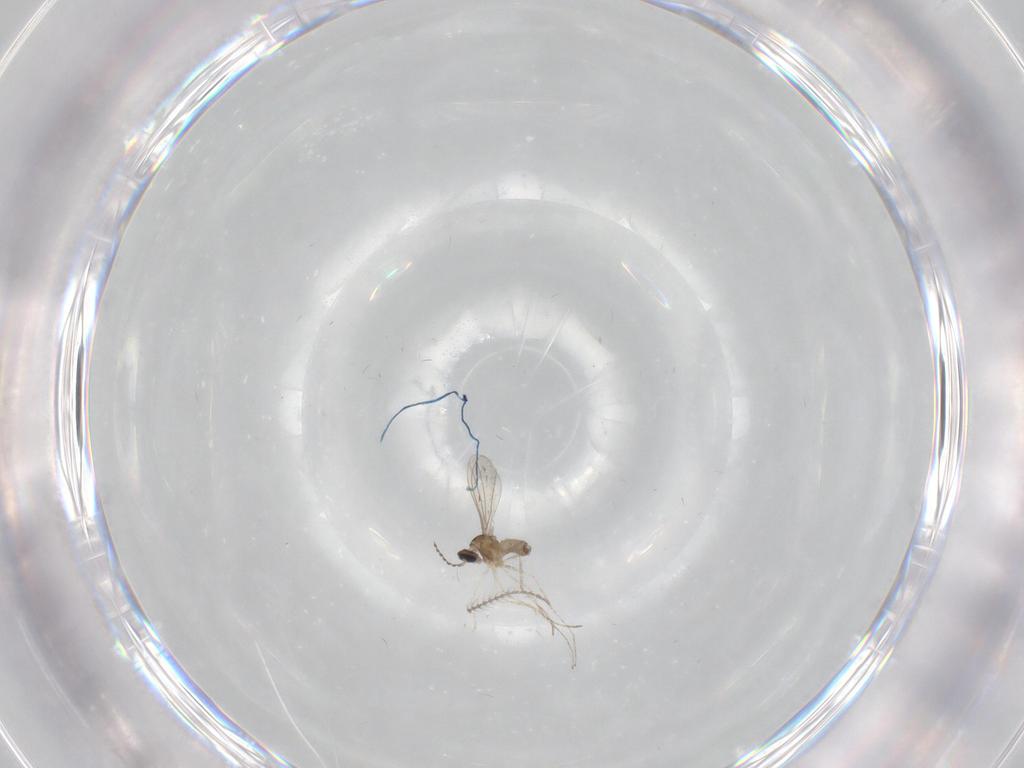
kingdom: Animalia
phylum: Arthropoda
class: Insecta
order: Diptera
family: Cecidomyiidae
